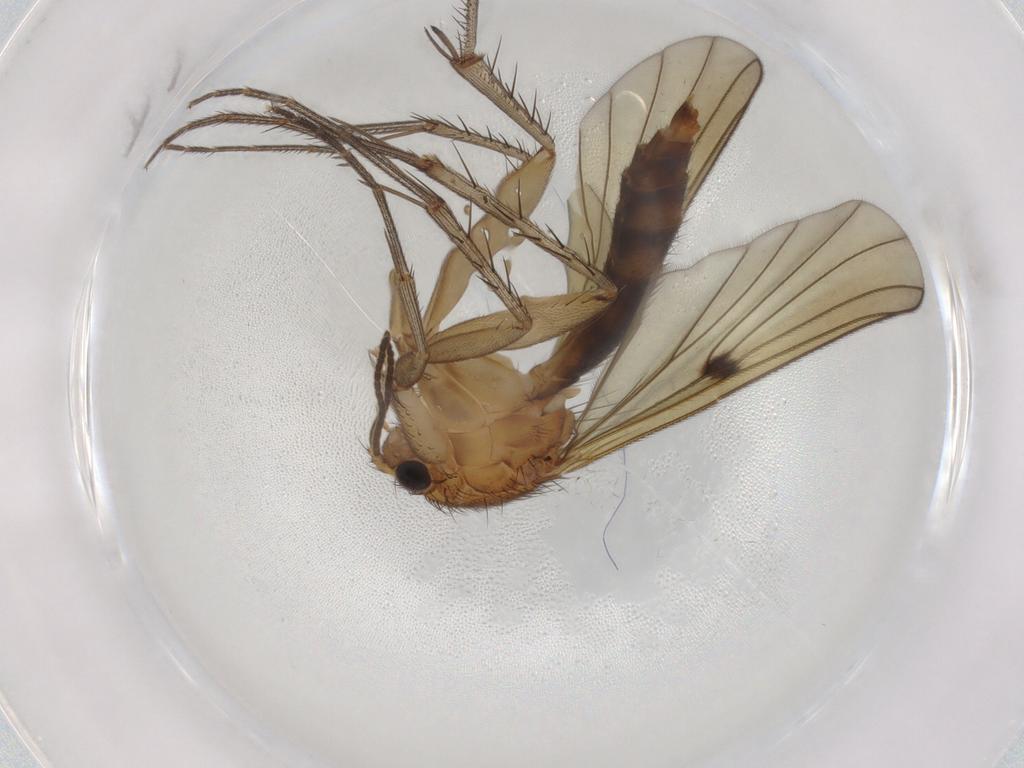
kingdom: Animalia
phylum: Arthropoda
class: Insecta
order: Diptera
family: Mycetophilidae
